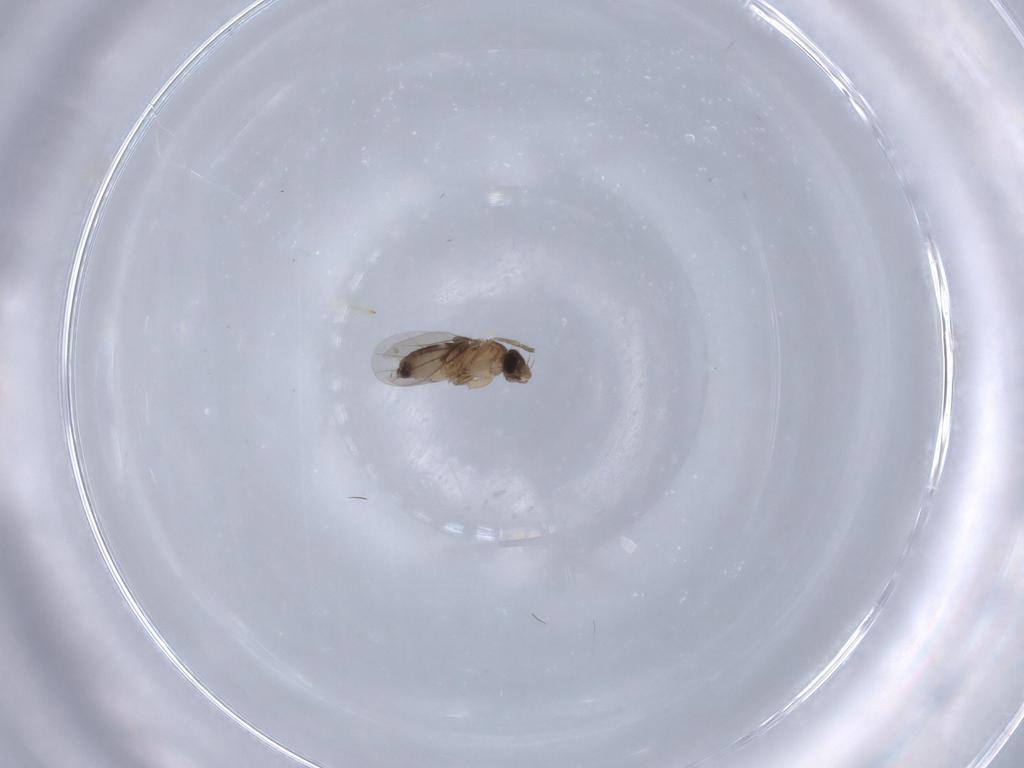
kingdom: Animalia
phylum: Arthropoda
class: Insecta
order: Diptera
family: Phoridae
